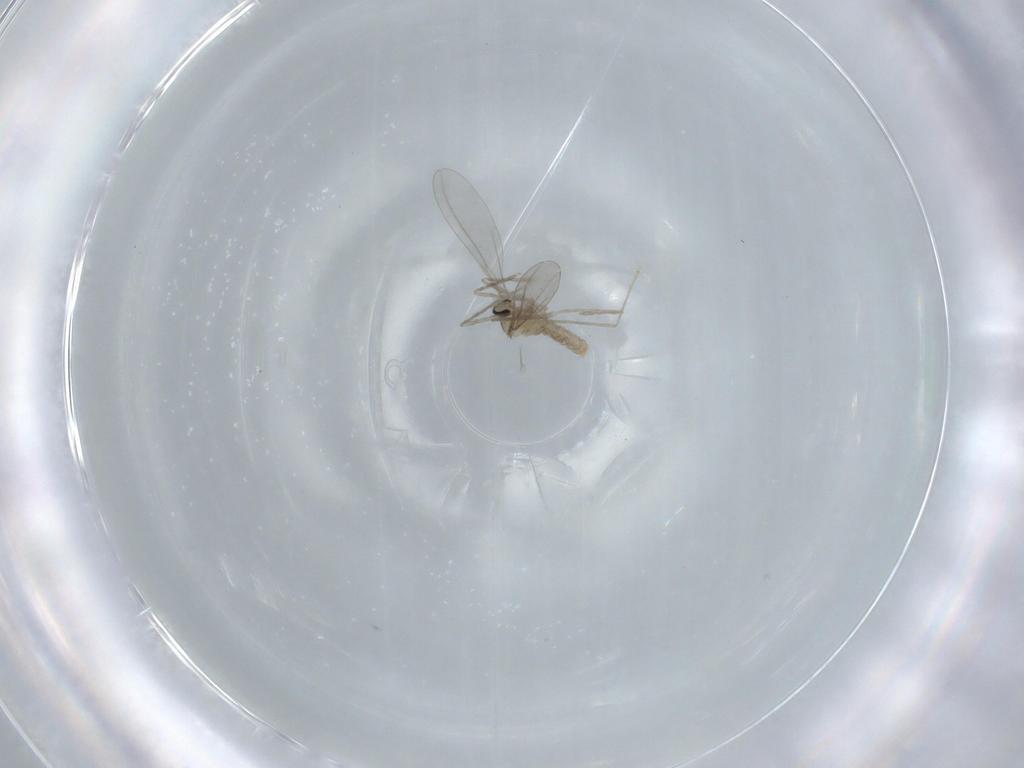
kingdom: Animalia
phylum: Arthropoda
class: Insecta
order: Diptera
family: Cecidomyiidae
